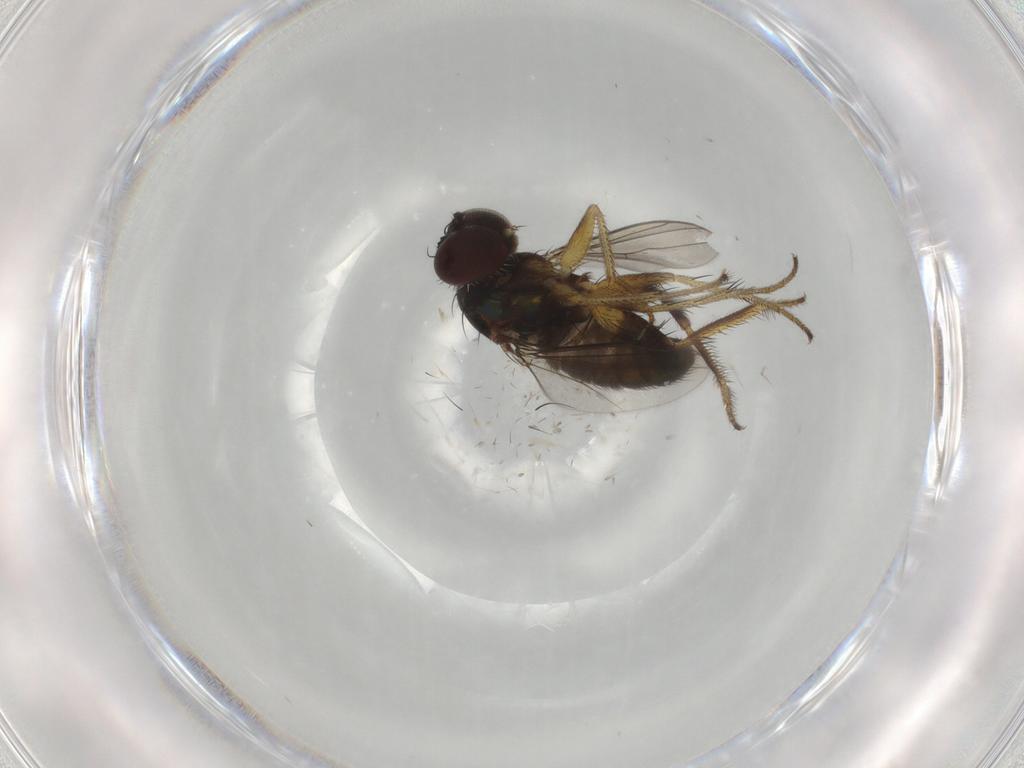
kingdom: Animalia
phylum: Arthropoda
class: Insecta
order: Diptera
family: Dolichopodidae
